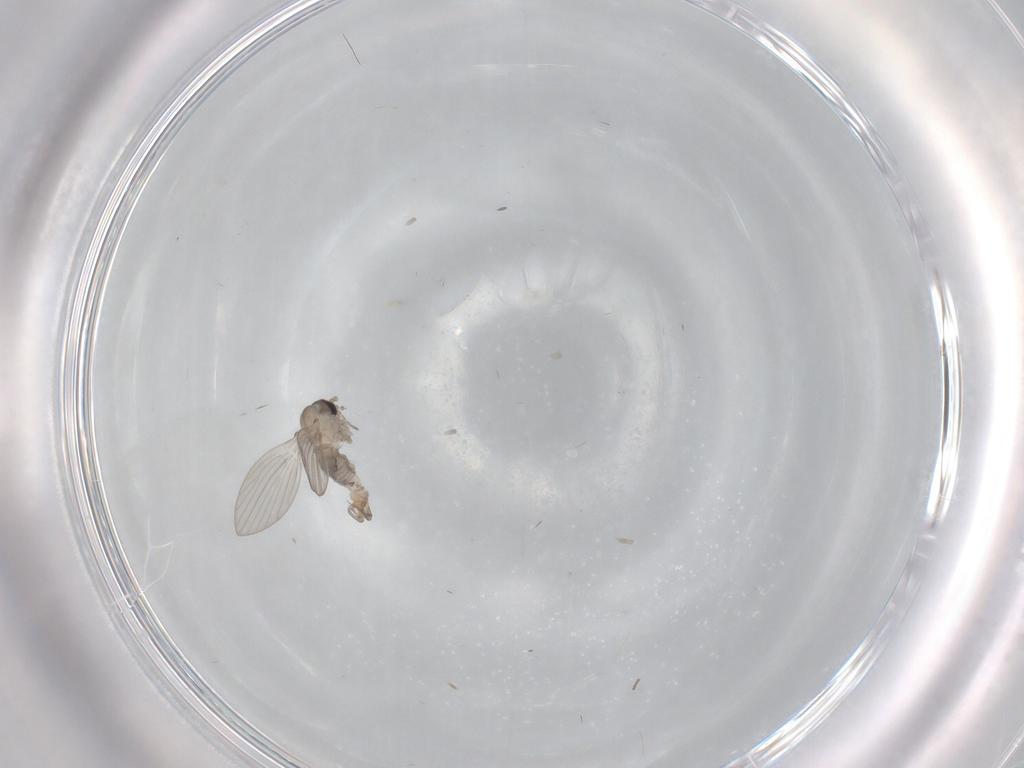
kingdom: Animalia
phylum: Arthropoda
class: Insecta
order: Diptera
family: Psychodidae
